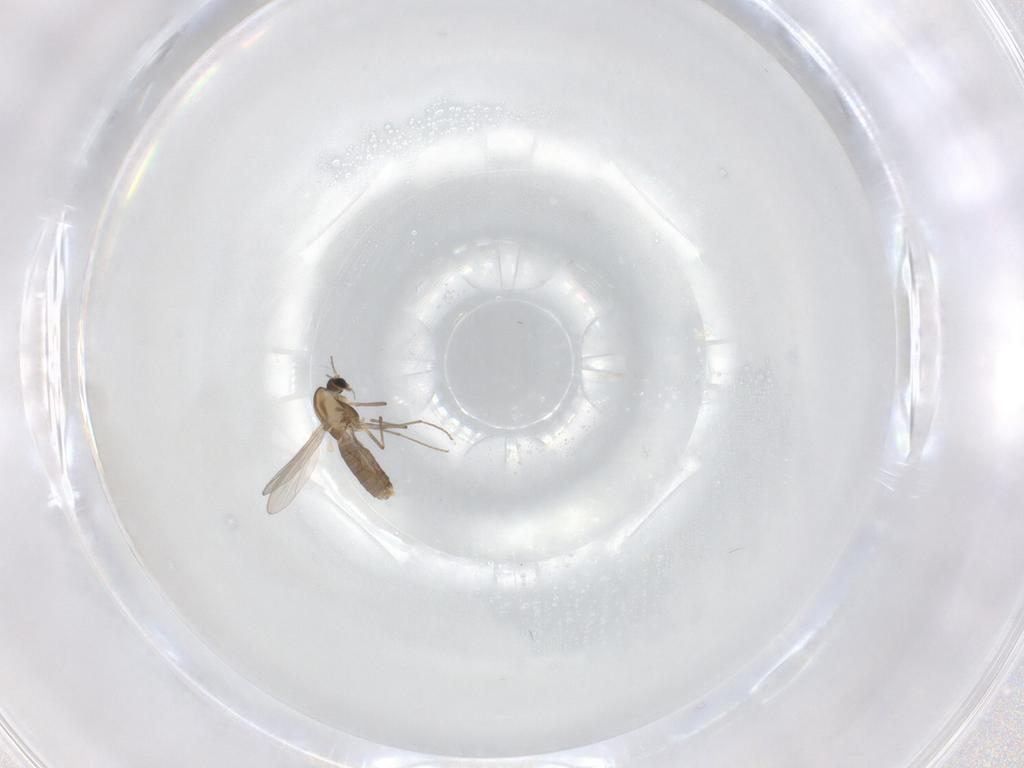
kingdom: Animalia
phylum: Arthropoda
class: Insecta
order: Diptera
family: Chironomidae
